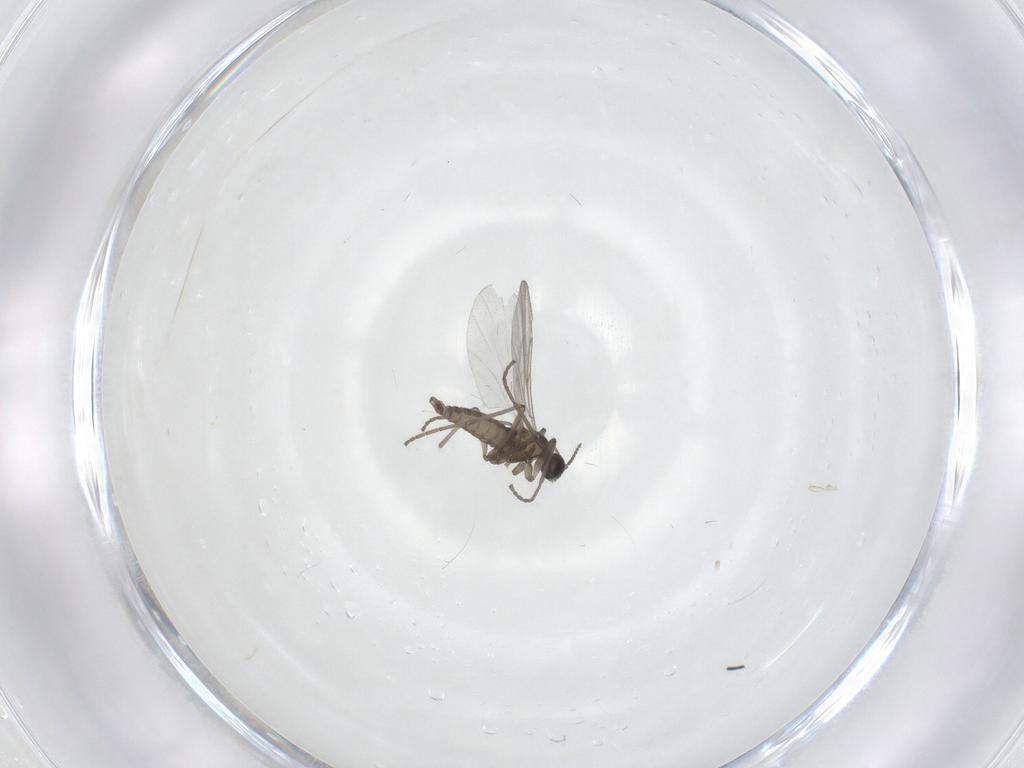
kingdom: Animalia
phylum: Arthropoda
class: Insecta
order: Diptera
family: Cecidomyiidae
